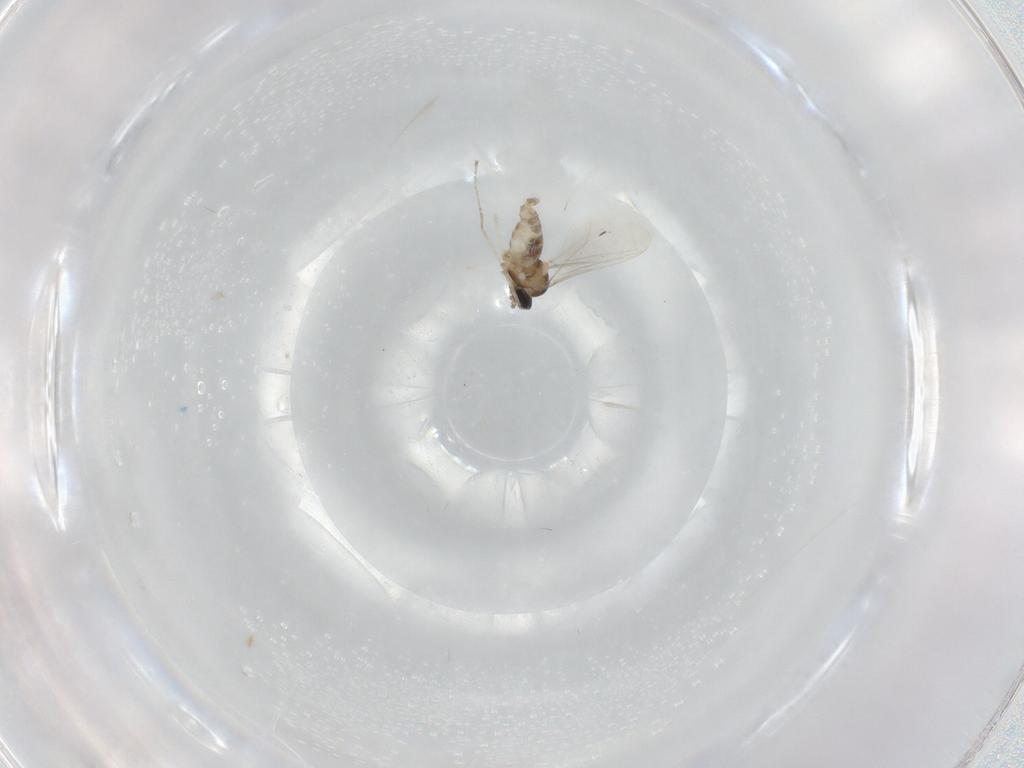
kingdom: Animalia
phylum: Arthropoda
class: Insecta
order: Diptera
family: Cecidomyiidae
